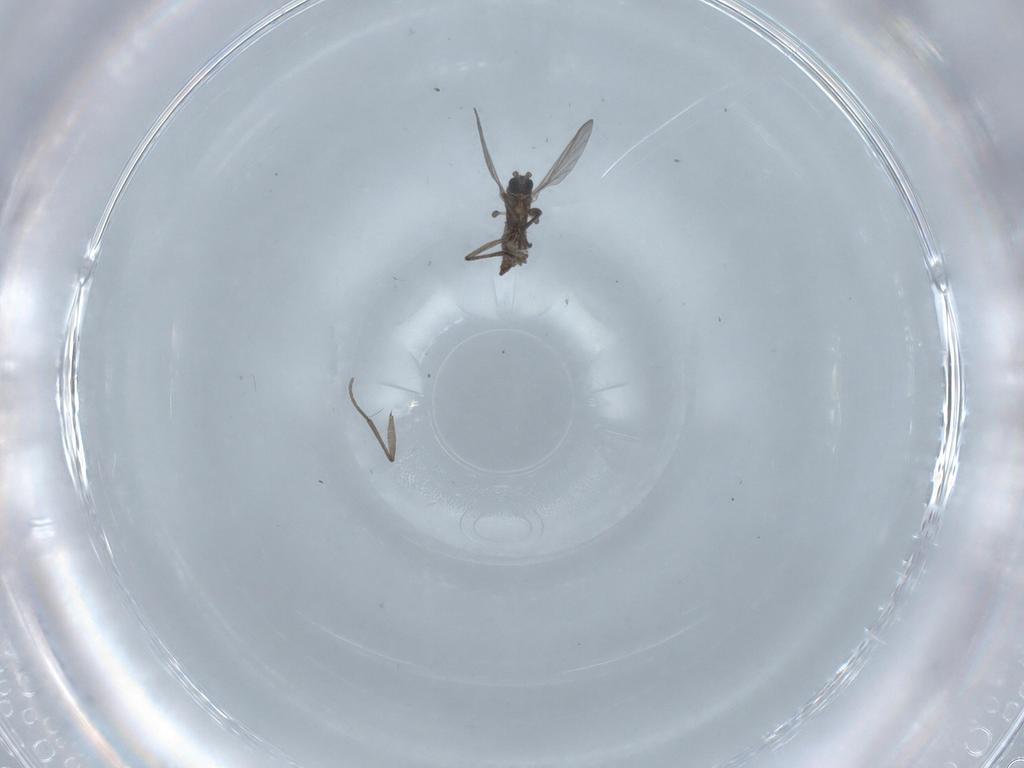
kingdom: Animalia
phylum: Arthropoda
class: Insecta
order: Diptera
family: Sciaridae
